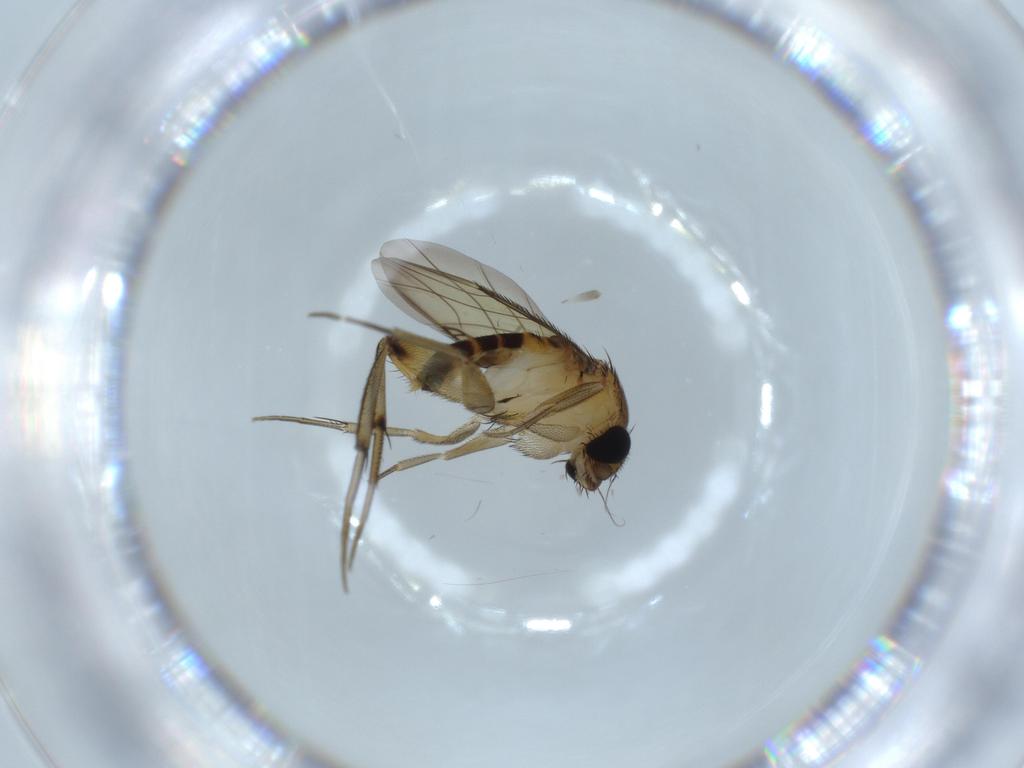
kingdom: Animalia
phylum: Arthropoda
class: Insecta
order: Diptera
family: Phoridae
